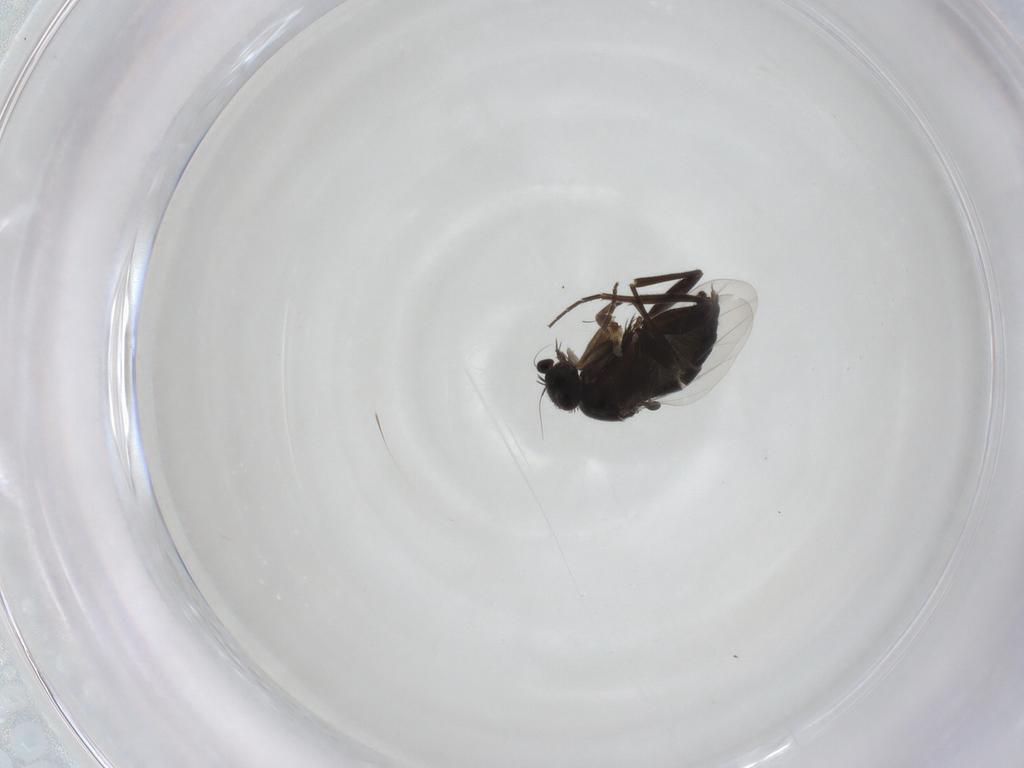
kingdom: Animalia
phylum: Arthropoda
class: Insecta
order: Diptera
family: Phoridae
